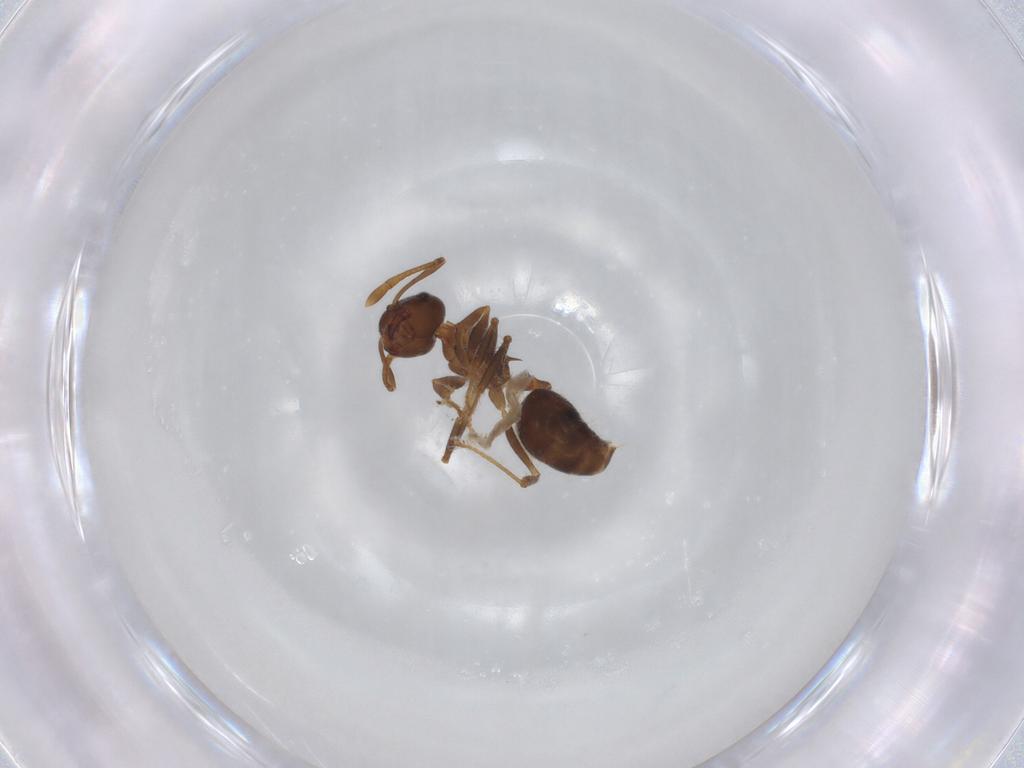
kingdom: Animalia
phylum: Arthropoda
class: Insecta
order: Hymenoptera
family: Formicidae
